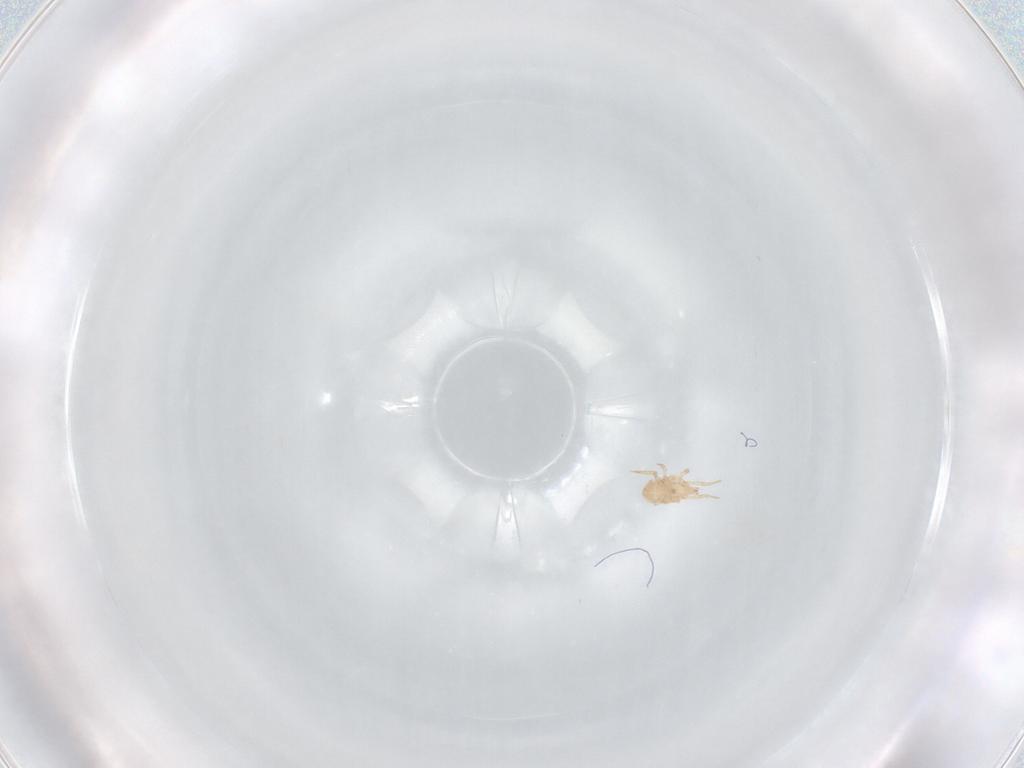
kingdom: Animalia
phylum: Arthropoda
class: Arachnida
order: Mesostigmata
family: Macrochelidae
